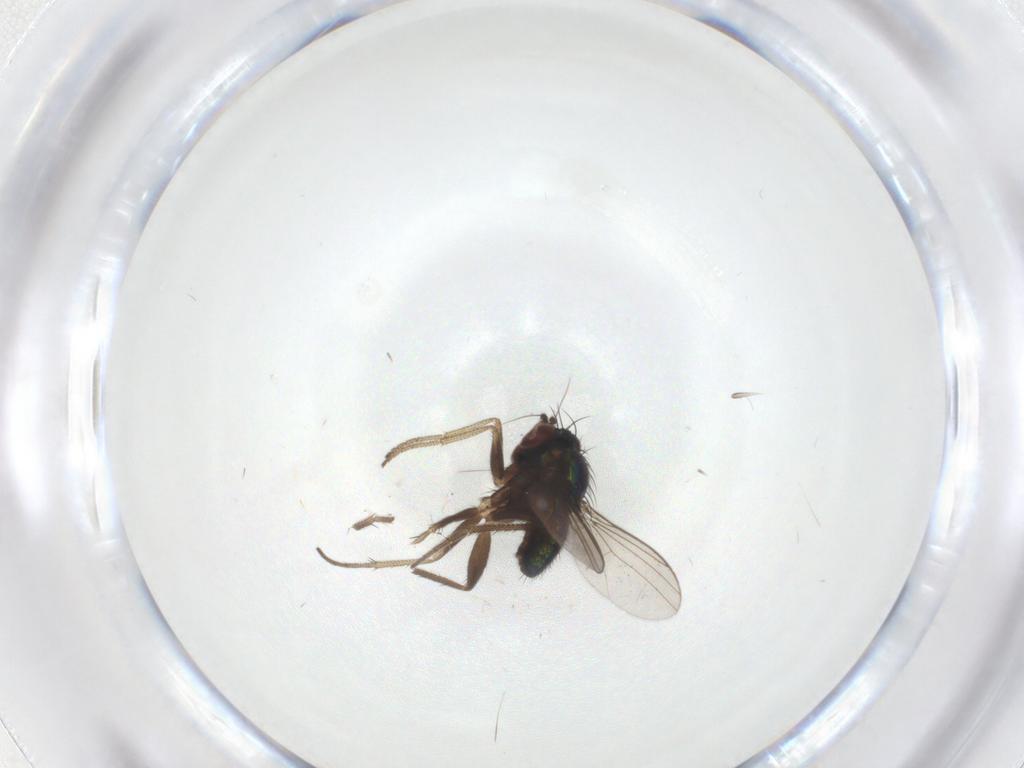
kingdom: Animalia
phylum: Arthropoda
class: Insecta
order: Diptera
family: Dolichopodidae
